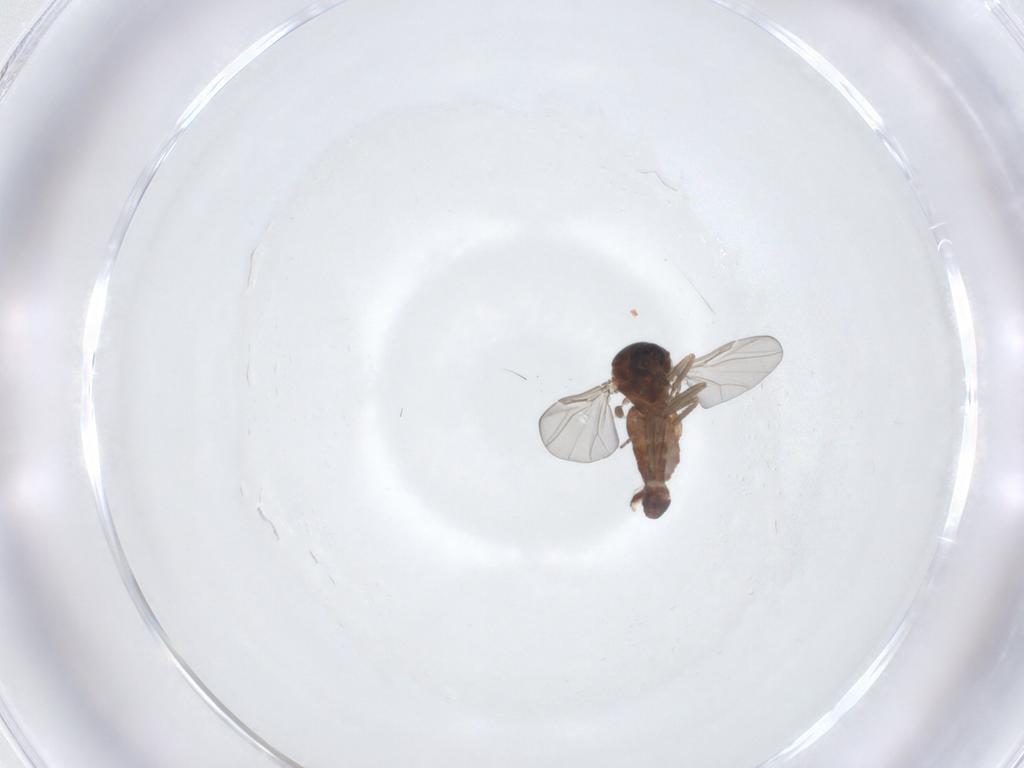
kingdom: Animalia
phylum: Arthropoda
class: Insecta
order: Diptera
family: Ceratopogonidae
